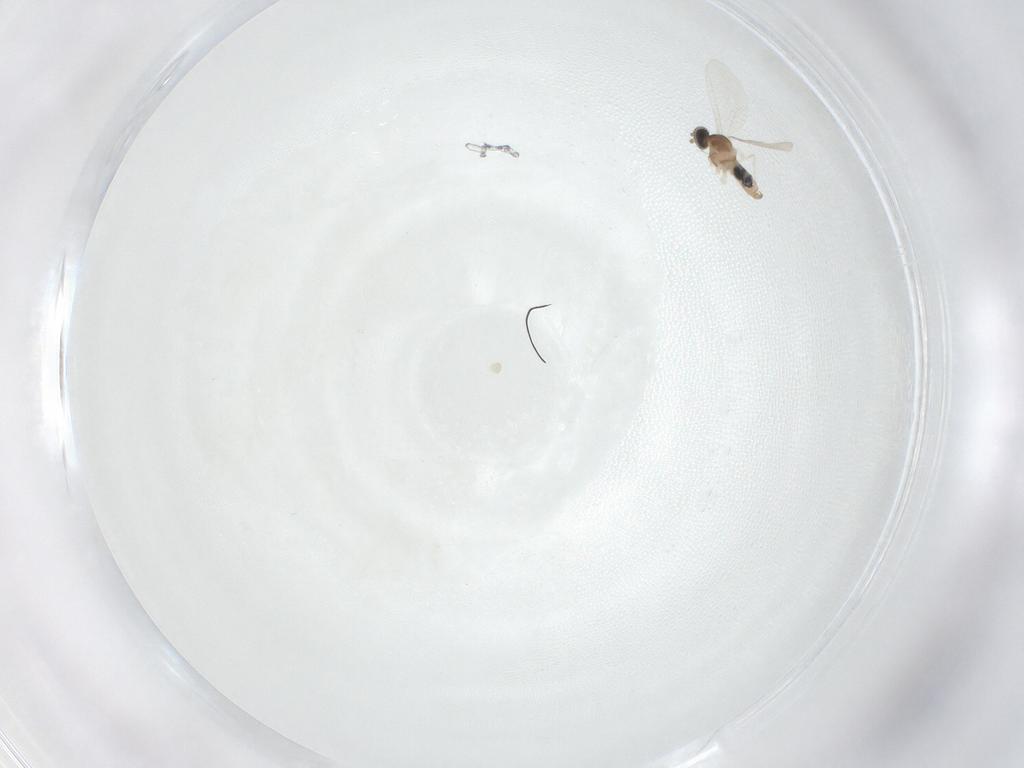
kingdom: Animalia
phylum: Arthropoda
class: Insecta
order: Diptera
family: Cecidomyiidae
